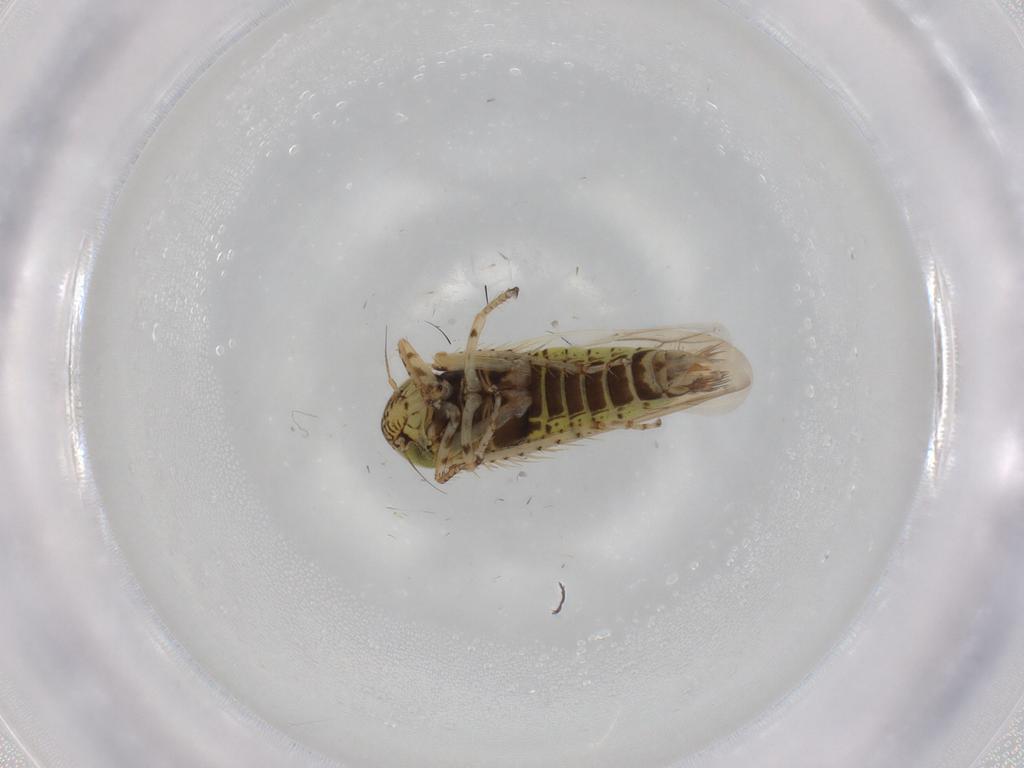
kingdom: Animalia
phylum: Arthropoda
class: Insecta
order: Hemiptera
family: Cicadellidae
